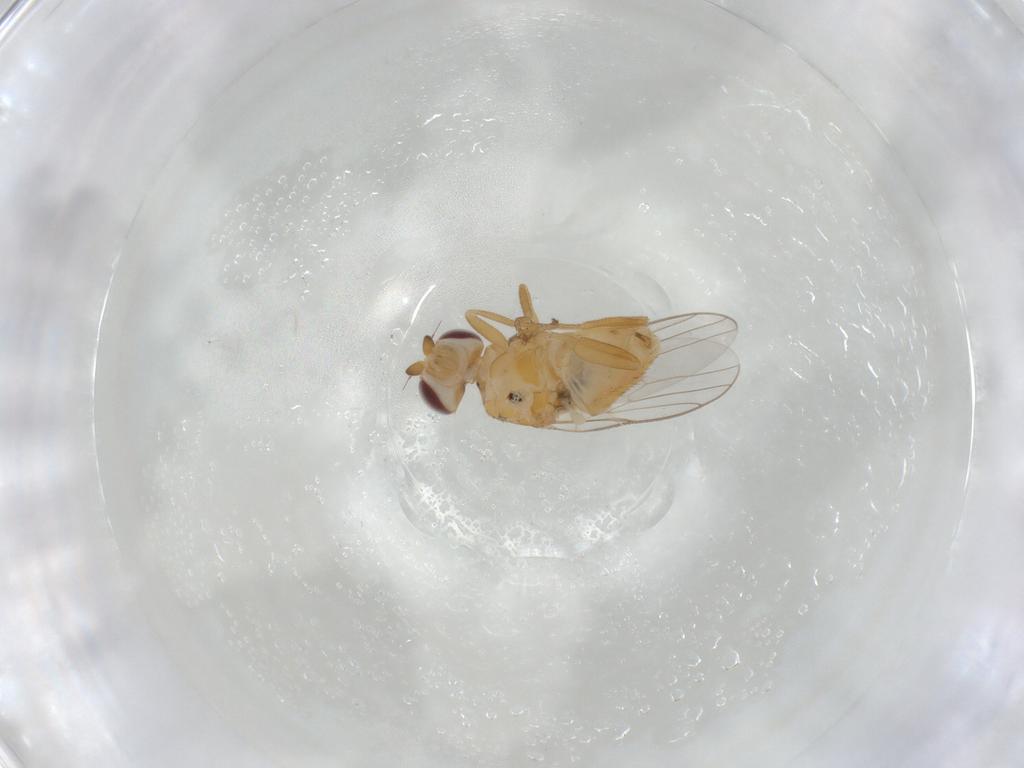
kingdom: Animalia
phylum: Arthropoda
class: Insecta
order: Diptera
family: Chloropidae
